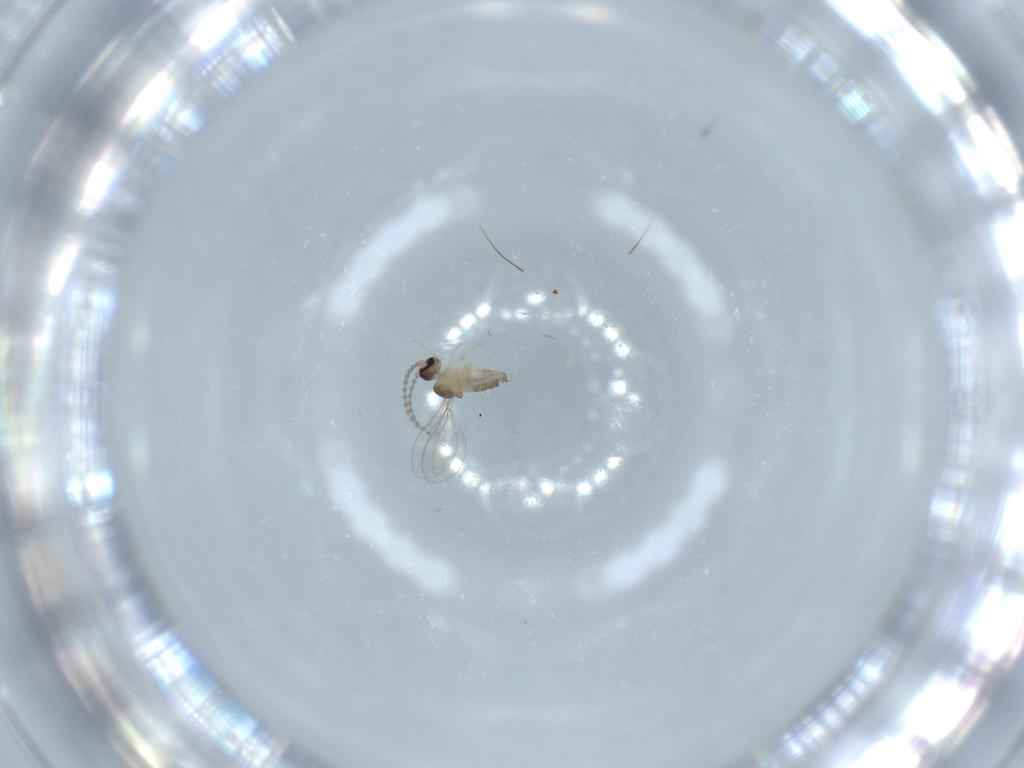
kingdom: Animalia
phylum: Arthropoda
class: Insecta
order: Diptera
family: Cecidomyiidae
